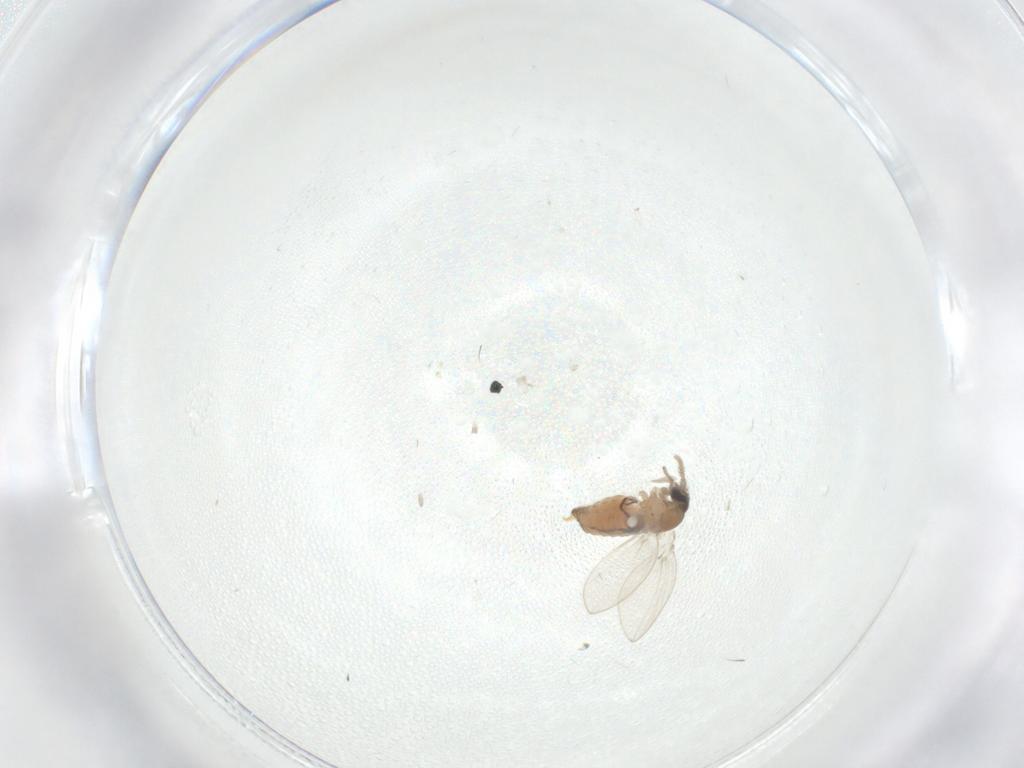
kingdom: Animalia
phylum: Arthropoda
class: Insecta
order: Diptera
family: Psychodidae
